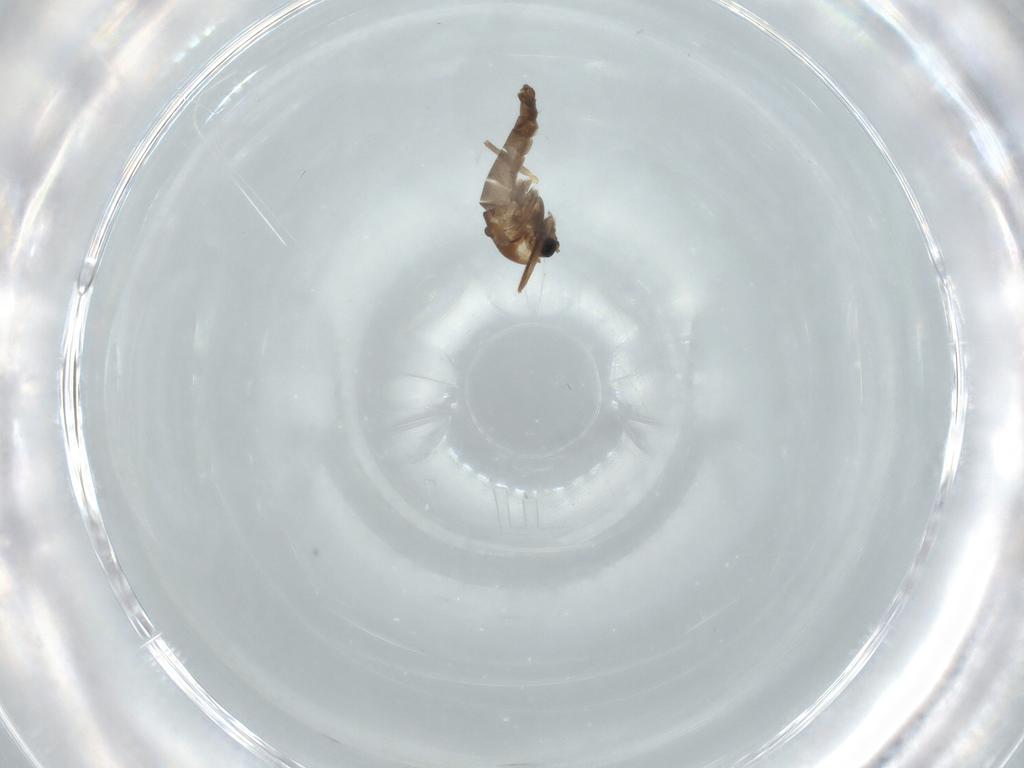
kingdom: Animalia
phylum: Arthropoda
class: Insecta
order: Diptera
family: Chironomidae
